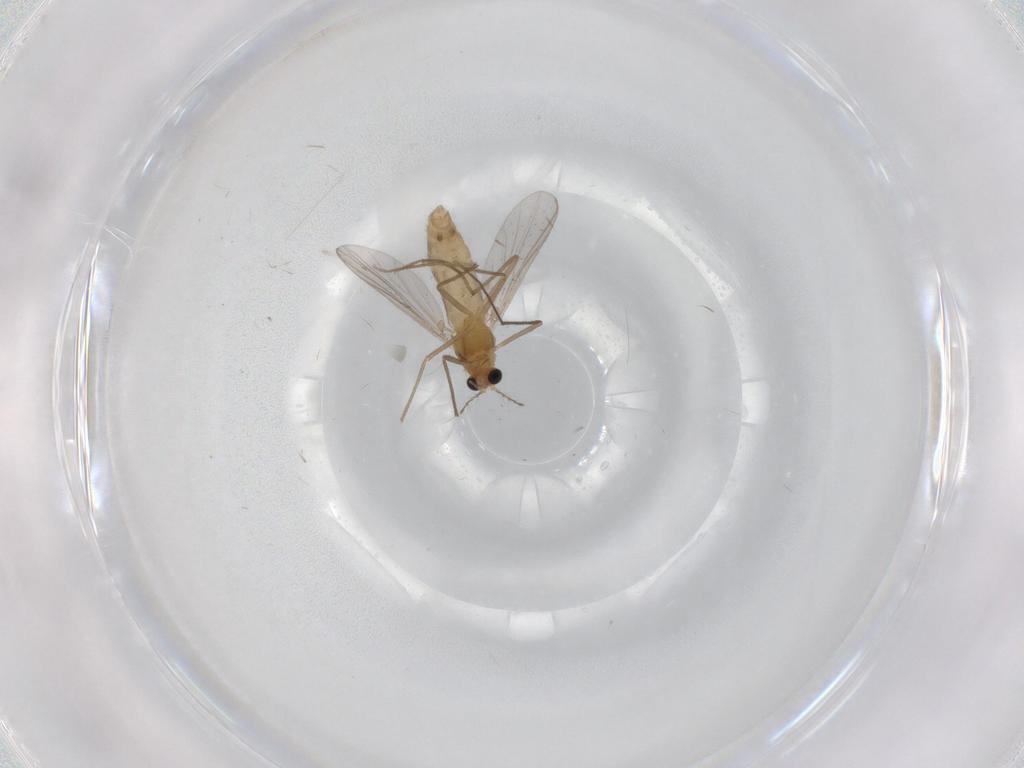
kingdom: Animalia
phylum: Arthropoda
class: Insecta
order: Diptera
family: Chironomidae
